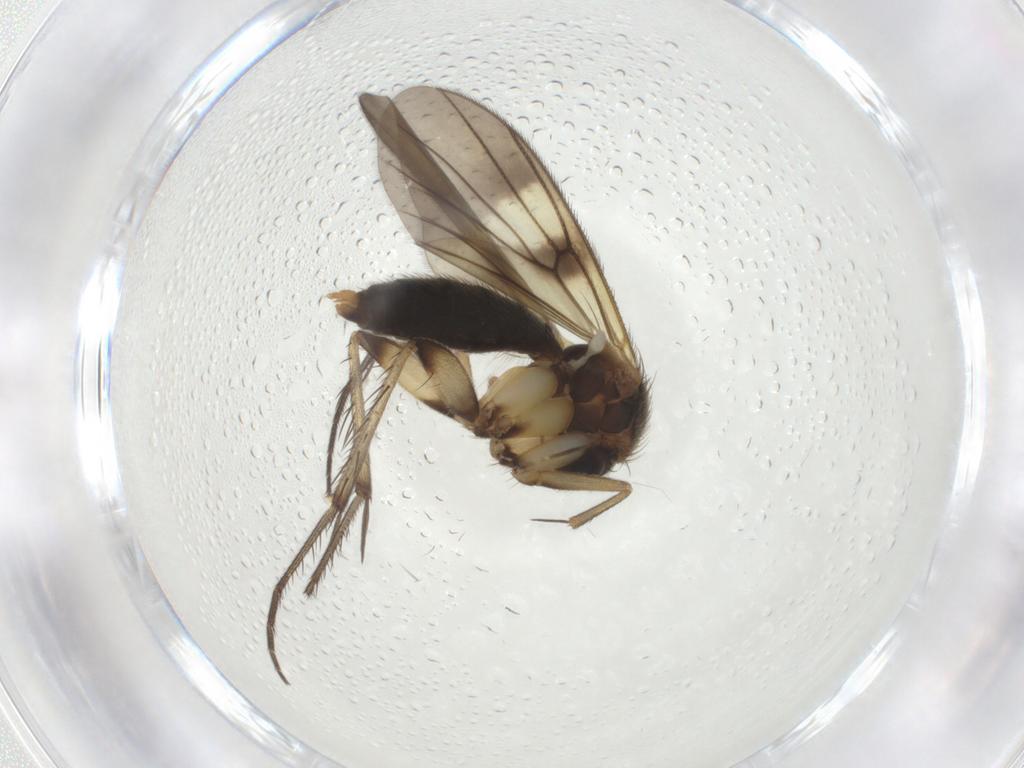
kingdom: Animalia
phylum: Arthropoda
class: Insecta
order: Diptera
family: Mycetophilidae
